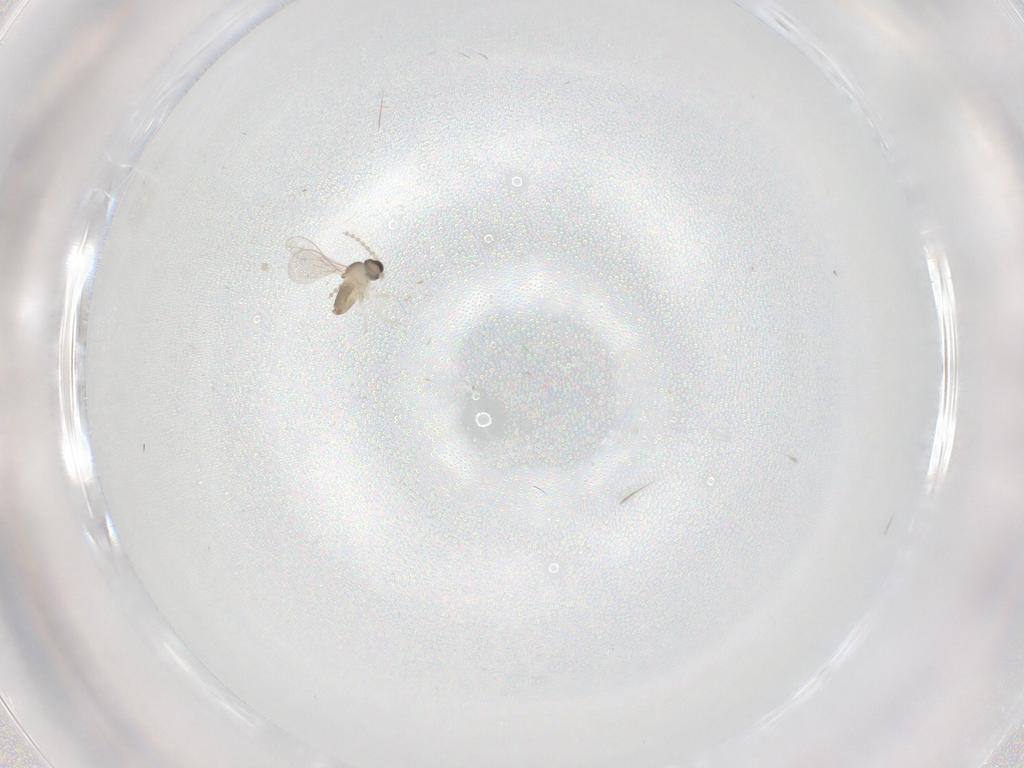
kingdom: Animalia
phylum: Arthropoda
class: Insecta
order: Diptera
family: Cecidomyiidae
